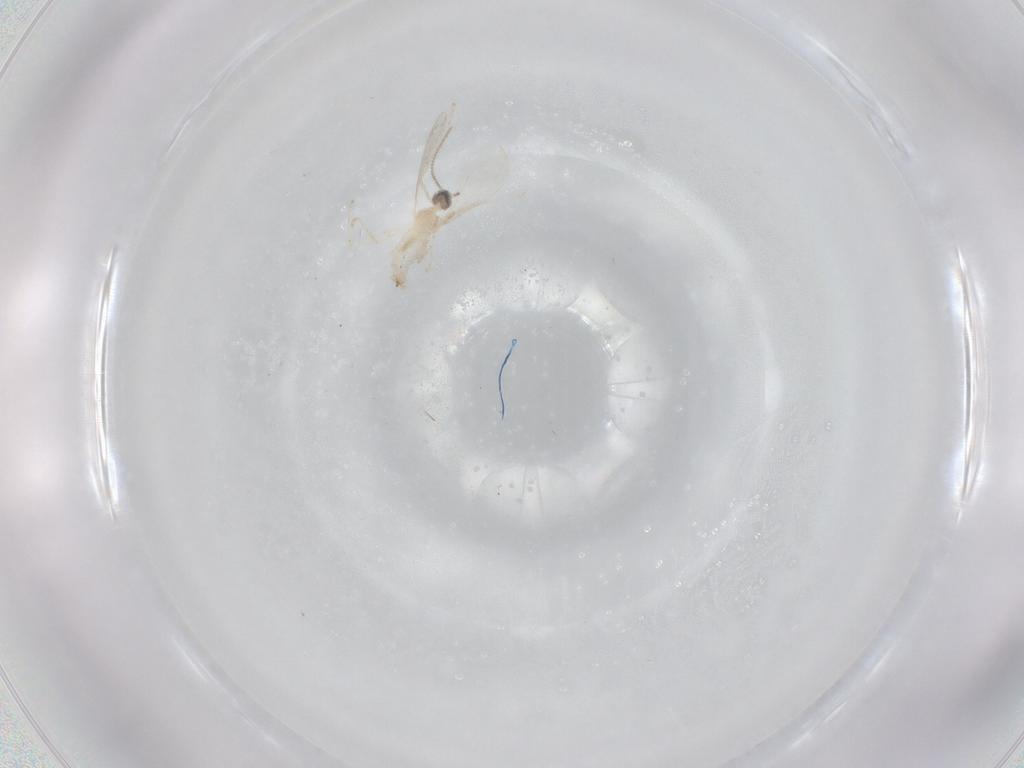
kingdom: Animalia
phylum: Arthropoda
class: Insecta
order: Diptera
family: Cecidomyiidae
